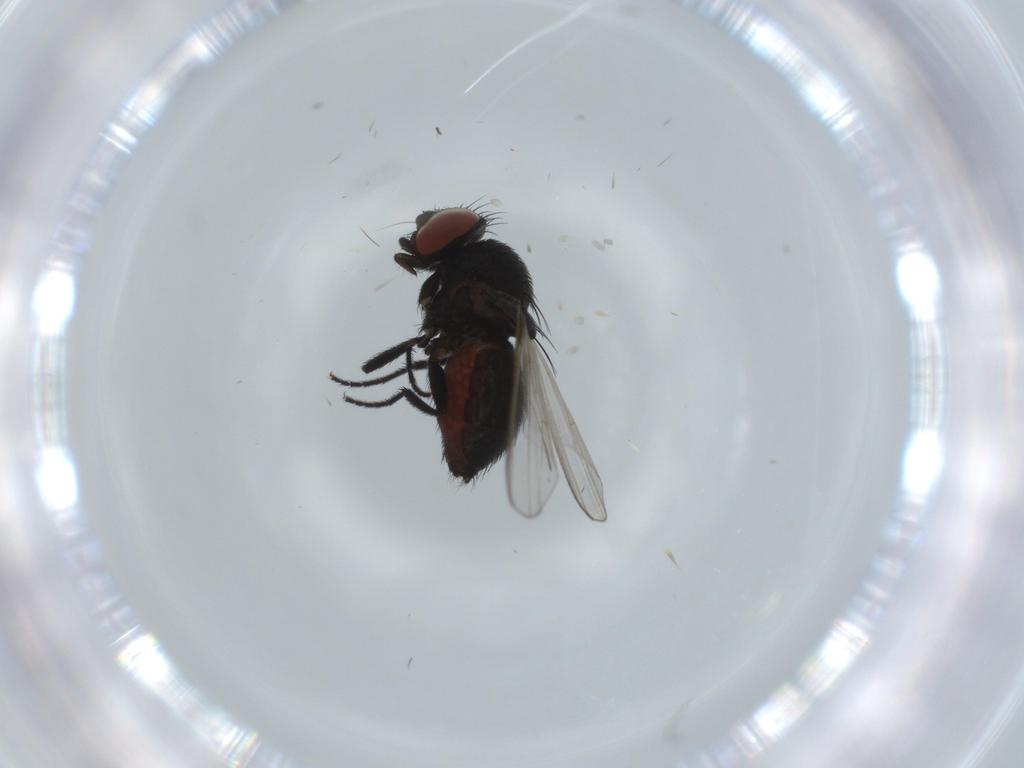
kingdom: Animalia
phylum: Arthropoda
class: Insecta
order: Diptera
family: Milichiidae
